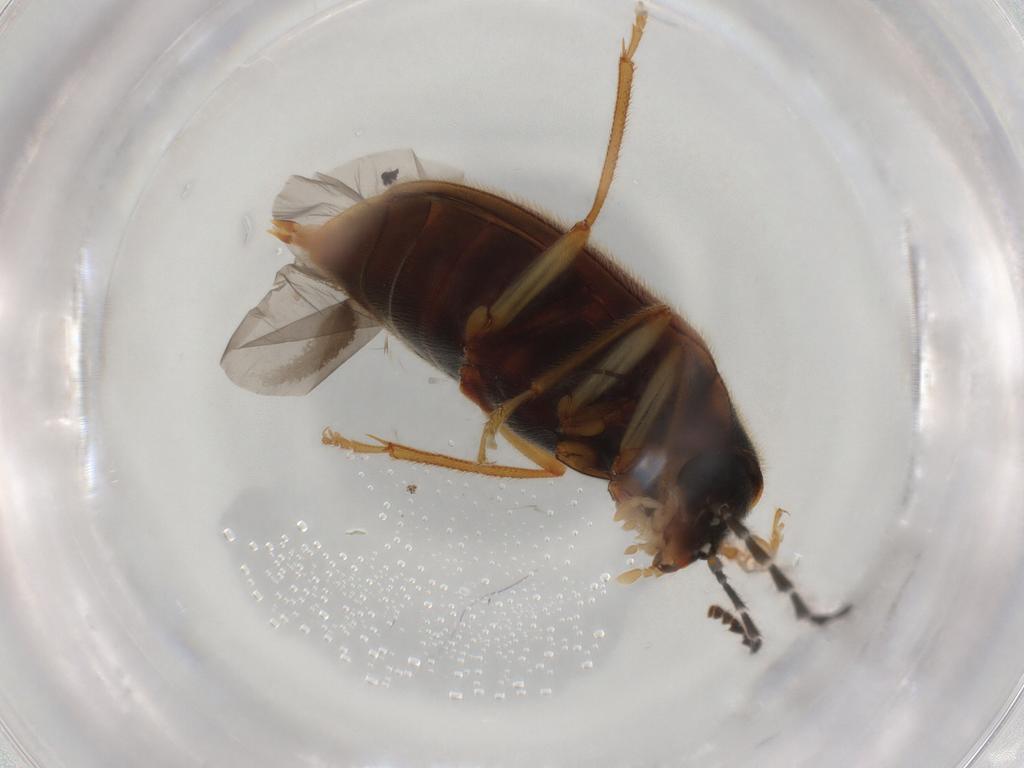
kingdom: Animalia
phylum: Arthropoda
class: Insecta
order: Coleoptera
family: Ptilodactylidae
